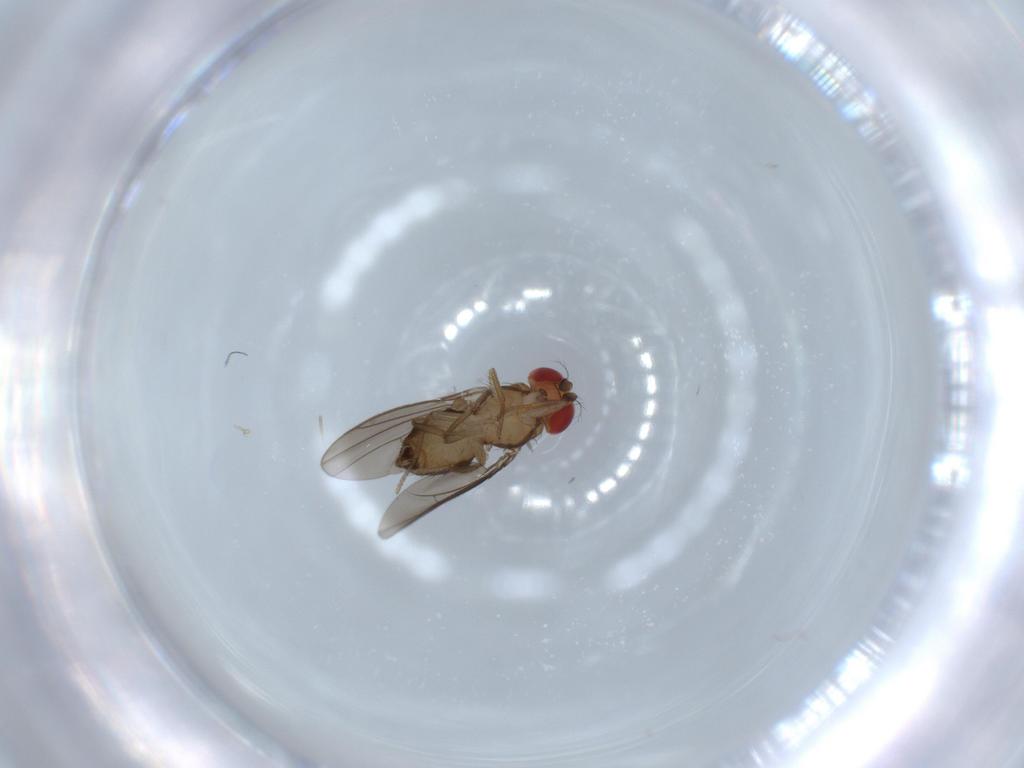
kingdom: Animalia
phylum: Arthropoda
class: Insecta
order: Diptera
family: Drosophilidae
